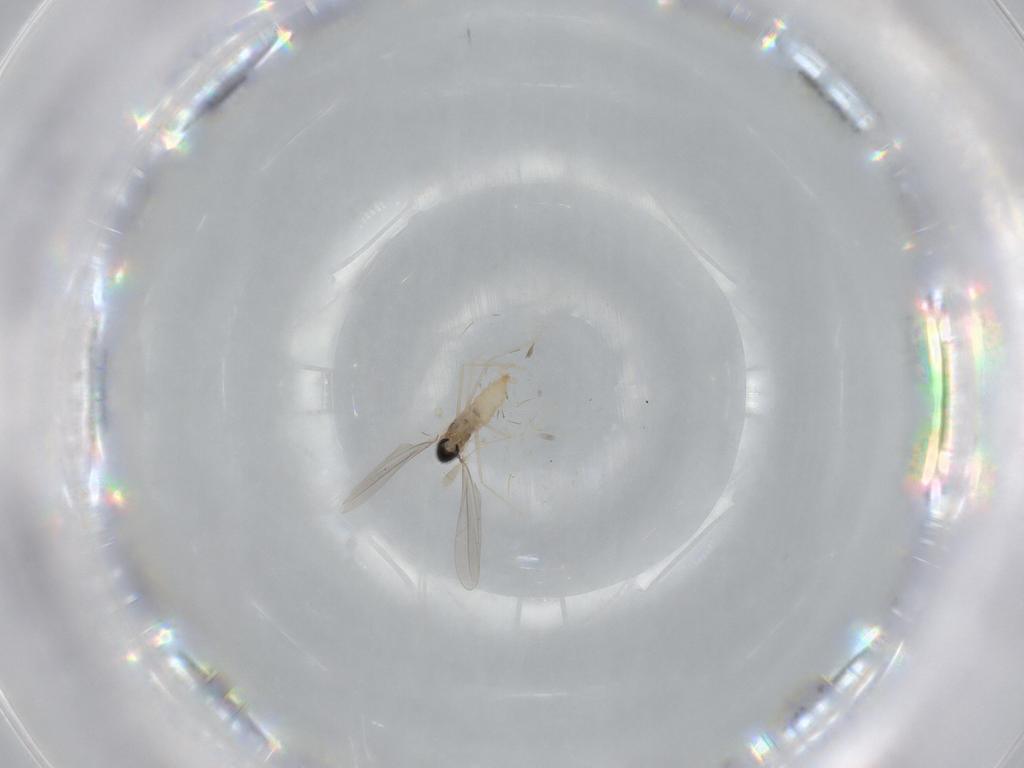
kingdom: Animalia
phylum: Arthropoda
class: Insecta
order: Diptera
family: Cecidomyiidae
